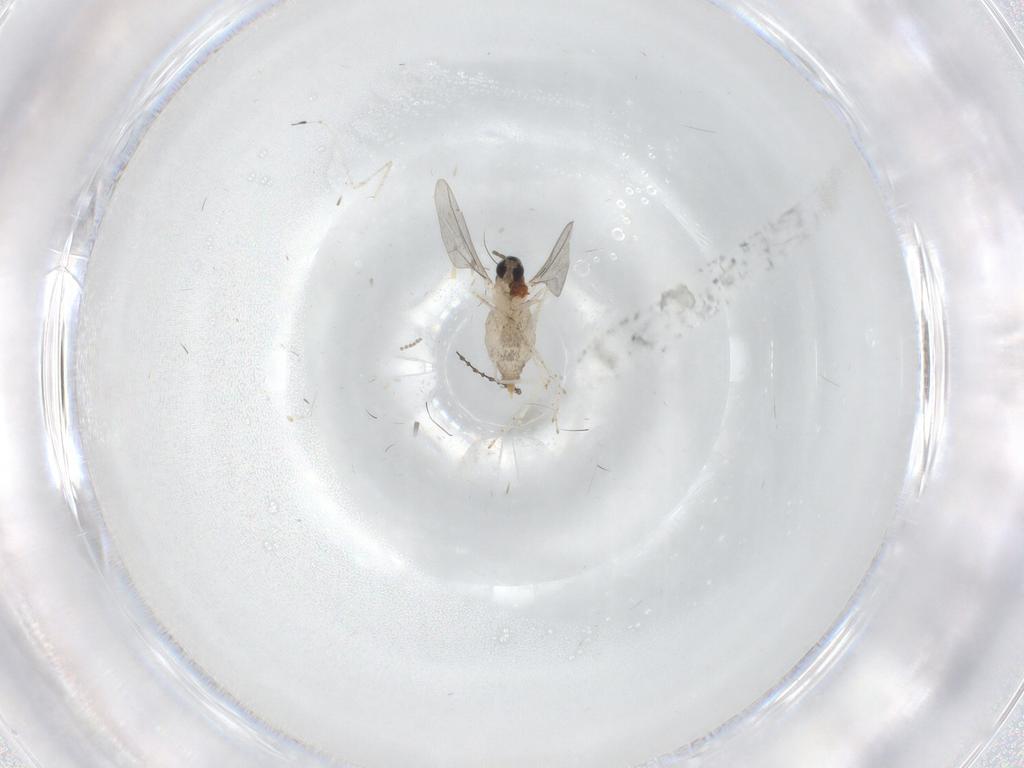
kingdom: Animalia
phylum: Arthropoda
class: Insecta
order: Diptera
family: Cecidomyiidae
